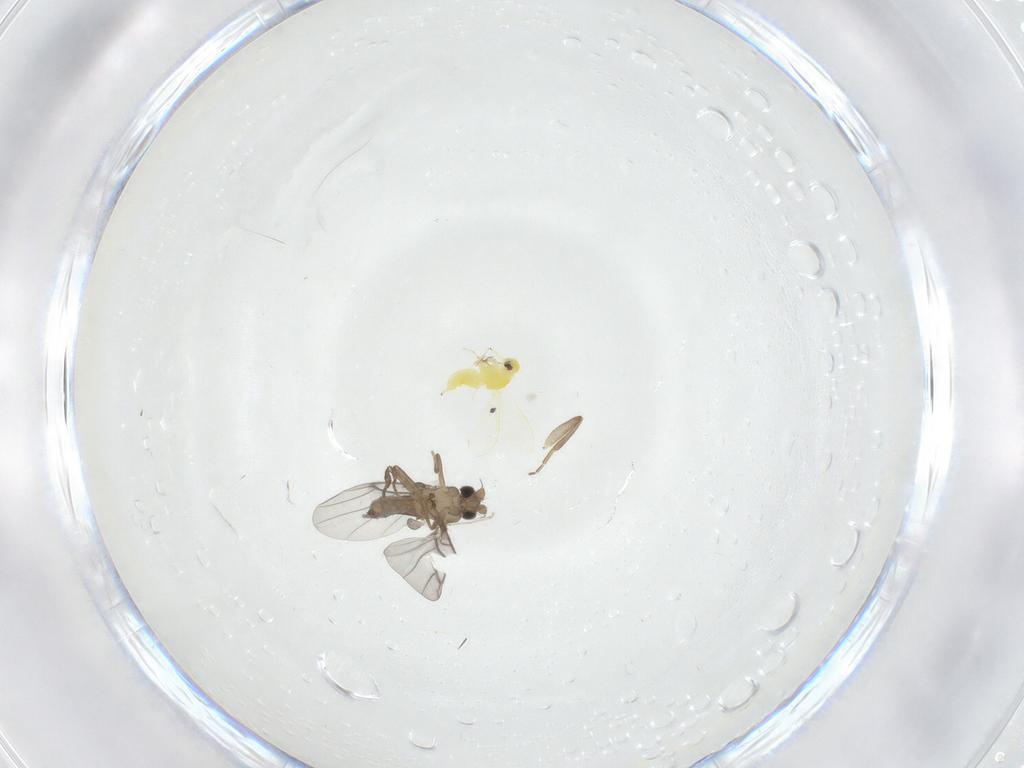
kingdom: Animalia
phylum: Arthropoda
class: Insecta
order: Diptera
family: Cecidomyiidae
